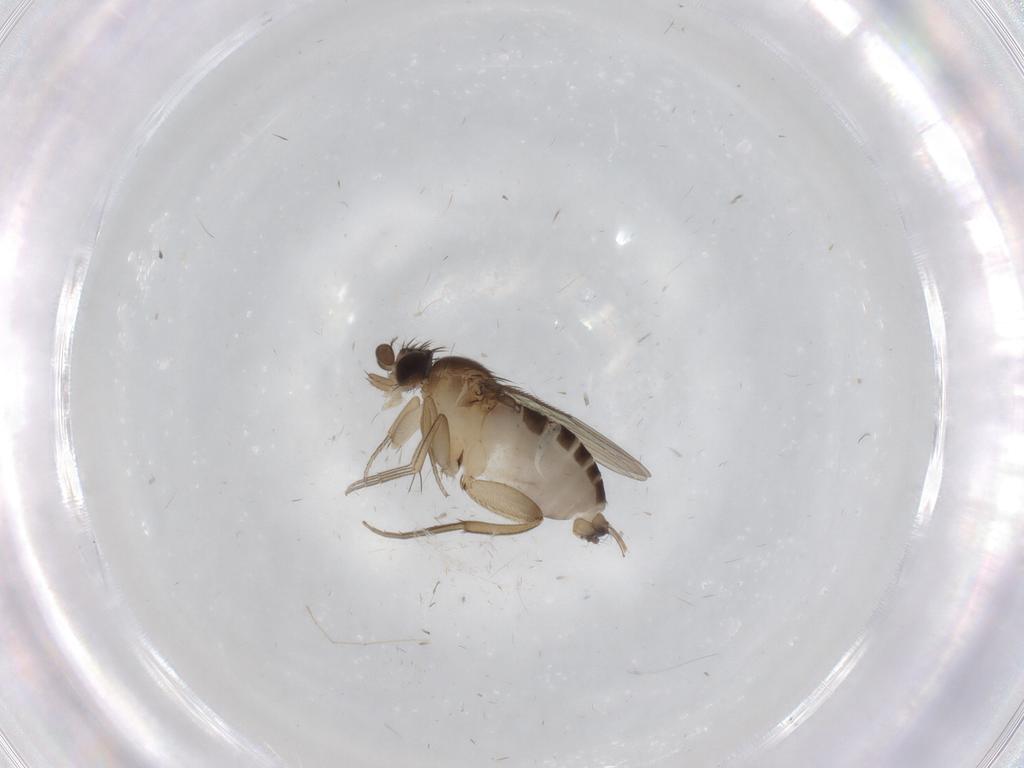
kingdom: Animalia
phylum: Arthropoda
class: Insecta
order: Diptera
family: Phoridae
